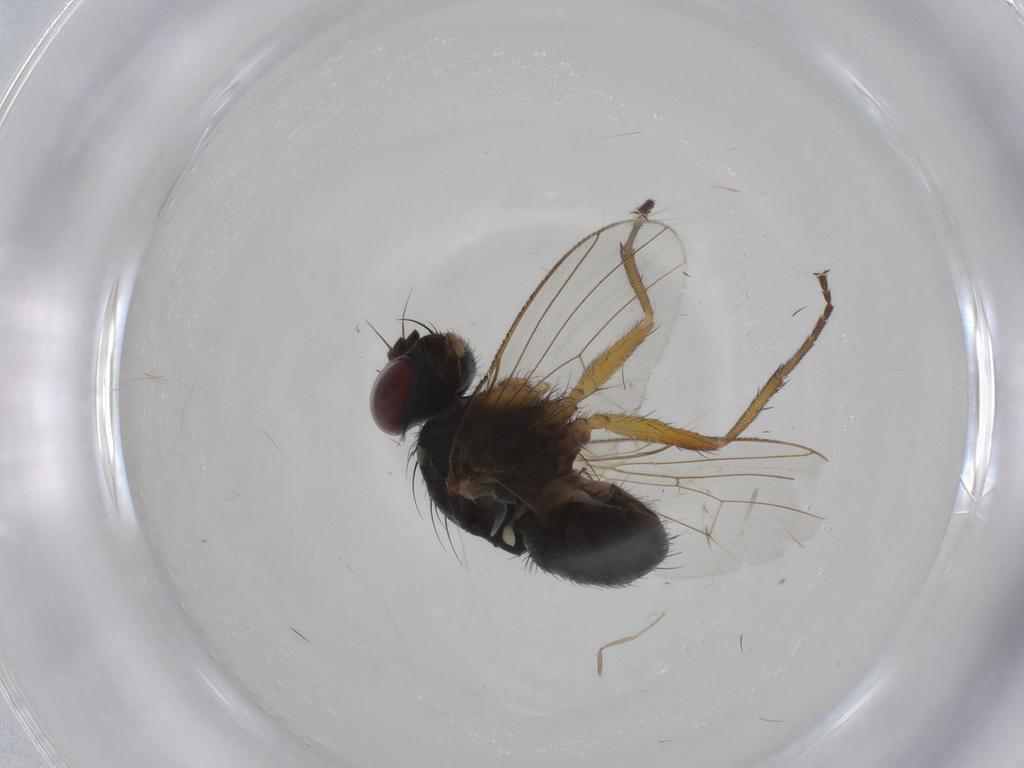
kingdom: Animalia
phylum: Arthropoda
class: Insecta
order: Diptera
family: Muscidae
